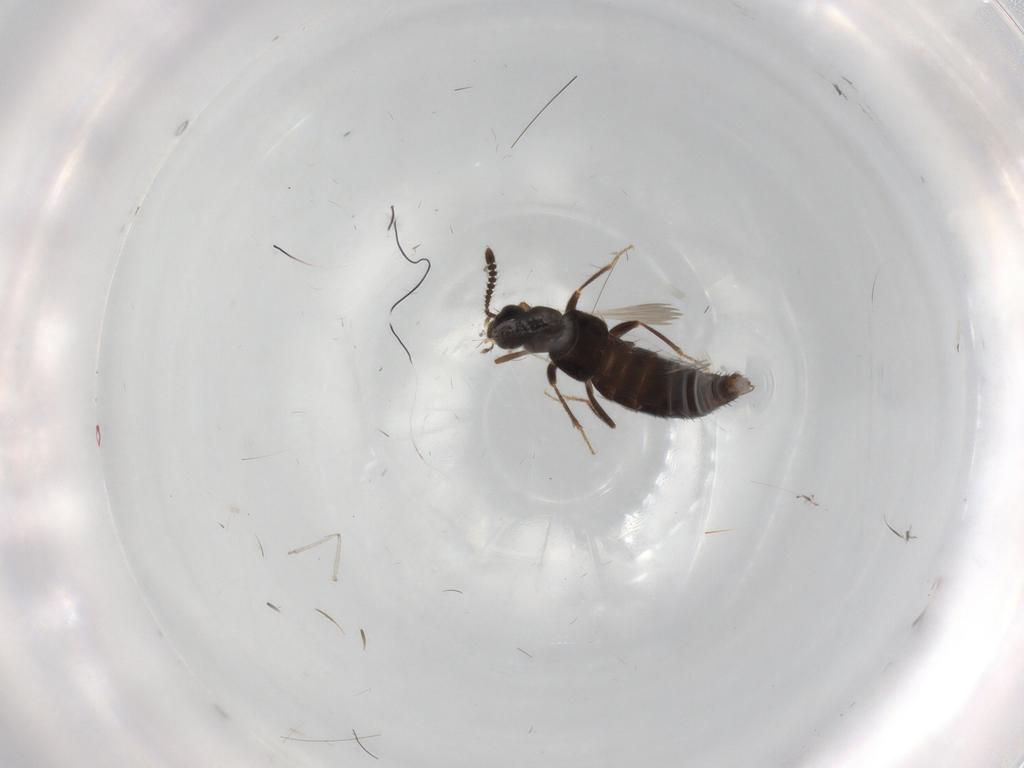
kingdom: Animalia
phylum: Arthropoda
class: Insecta
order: Coleoptera
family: Staphylinidae
